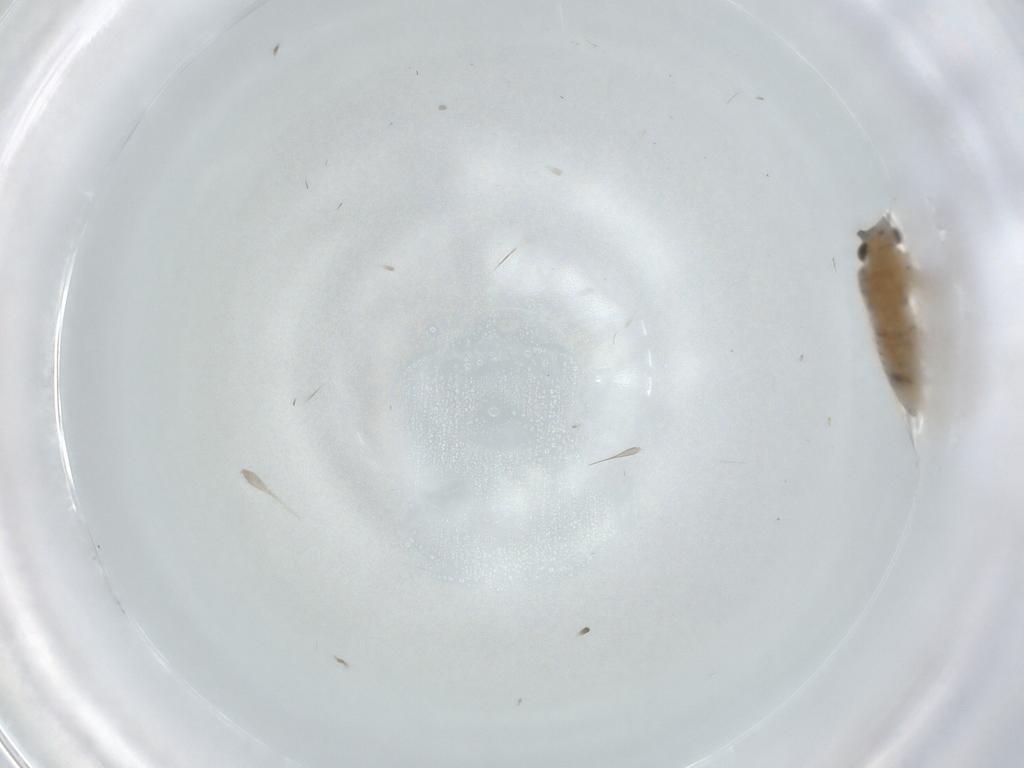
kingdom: Animalia
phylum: Arthropoda
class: Insecta
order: Psocodea
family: Lachesillidae
